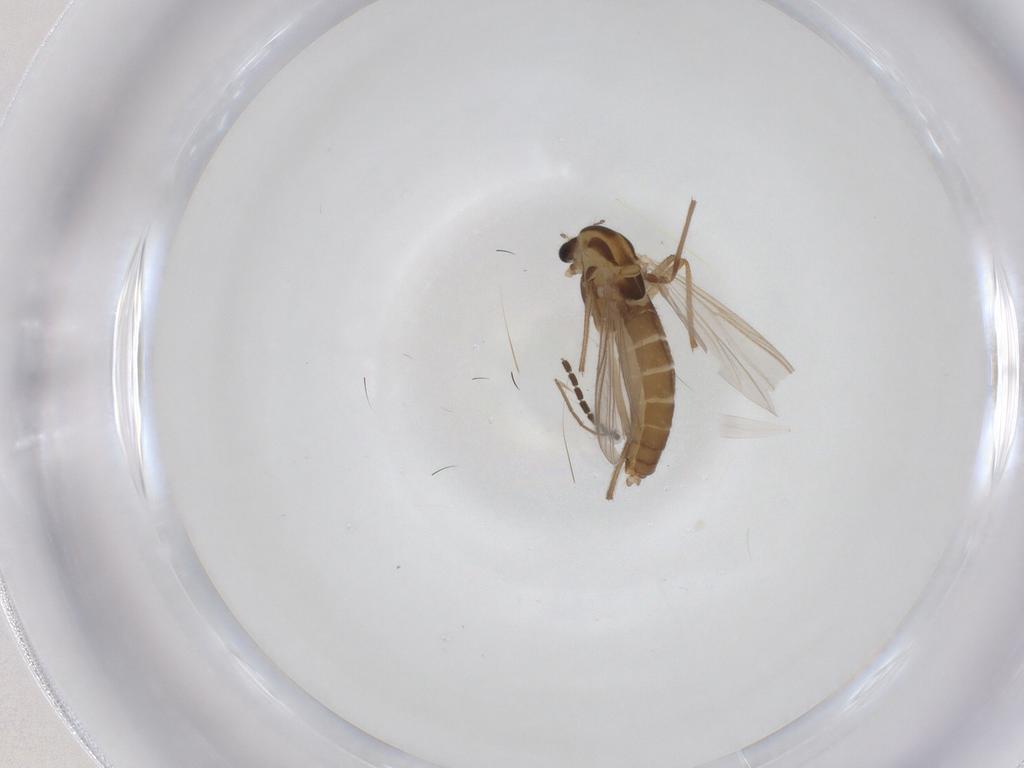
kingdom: Animalia
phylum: Arthropoda
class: Insecta
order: Diptera
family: Chironomidae
